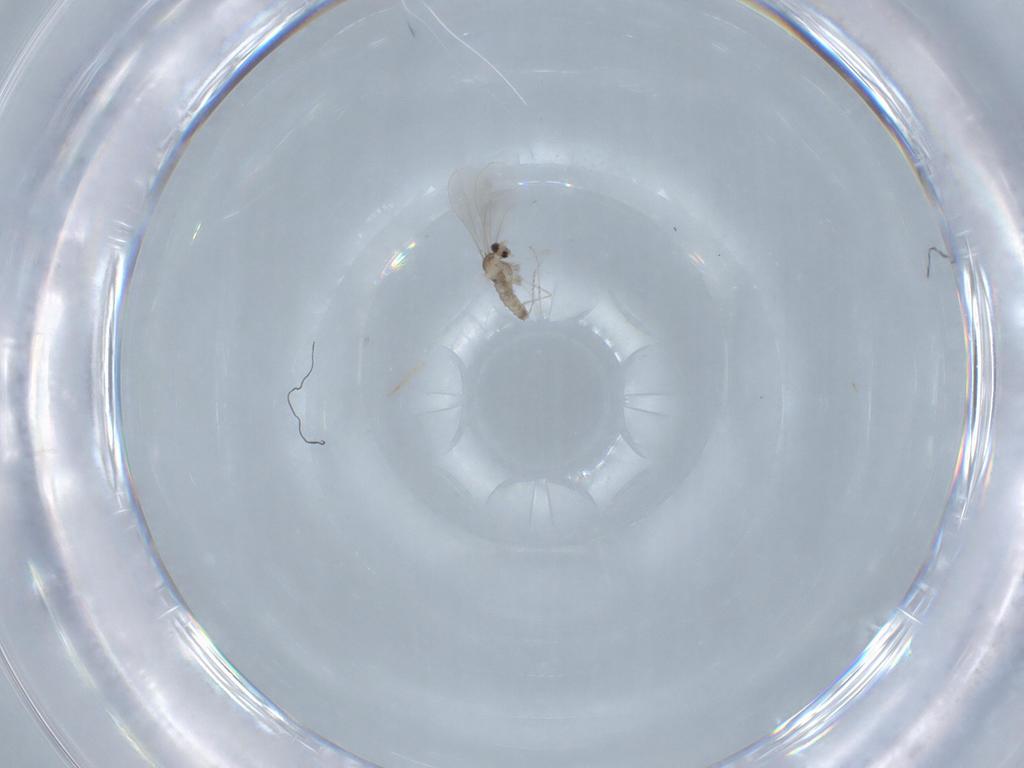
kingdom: Animalia
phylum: Arthropoda
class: Insecta
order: Diptera
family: Cecidomyiidae
